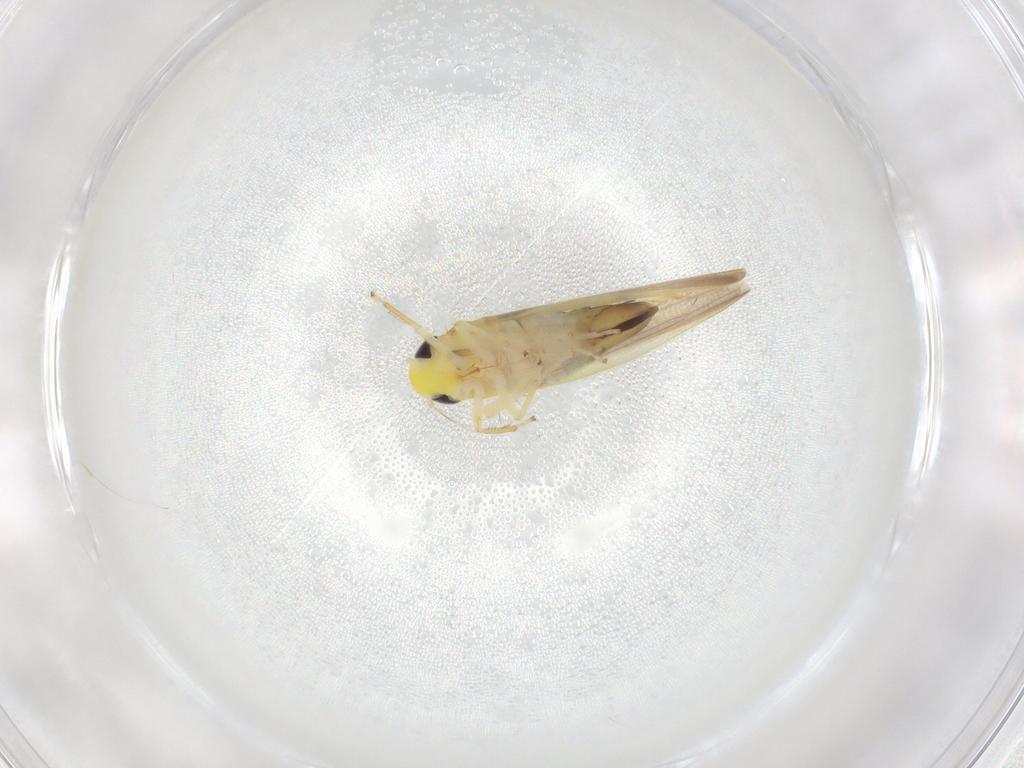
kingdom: Animalia
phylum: Arthropoda
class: Insecta
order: Hemiptera
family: Cicadellidae
